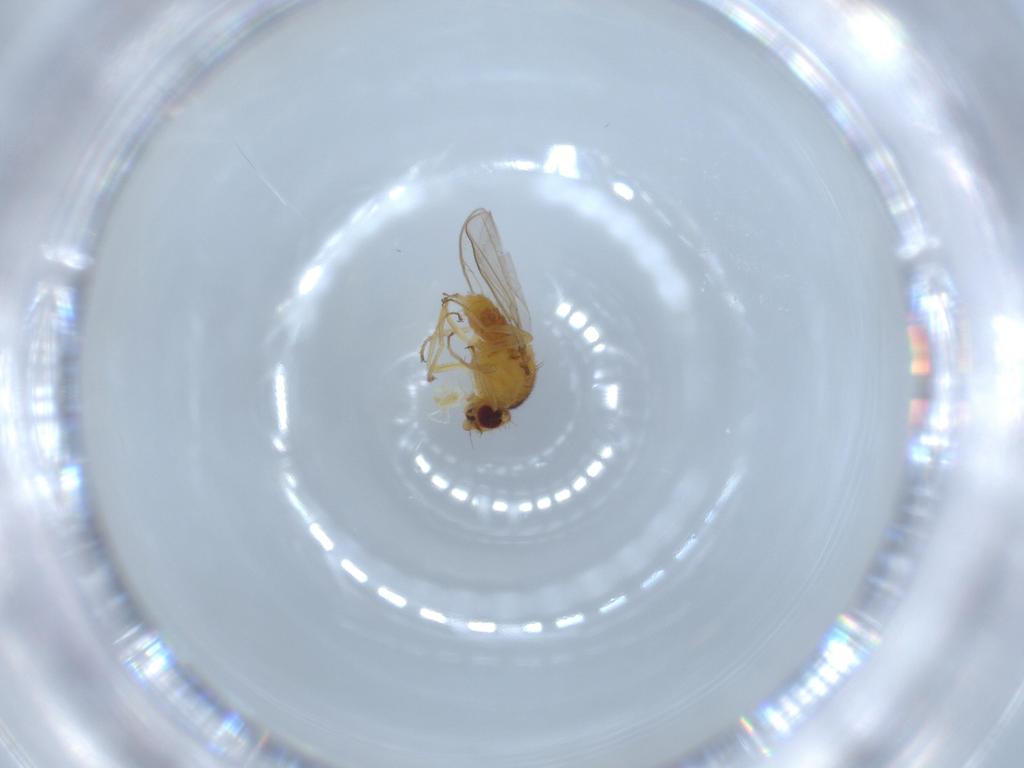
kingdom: Animalia
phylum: Arthropoda
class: Insecta
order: Diptera
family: Chloropidae
